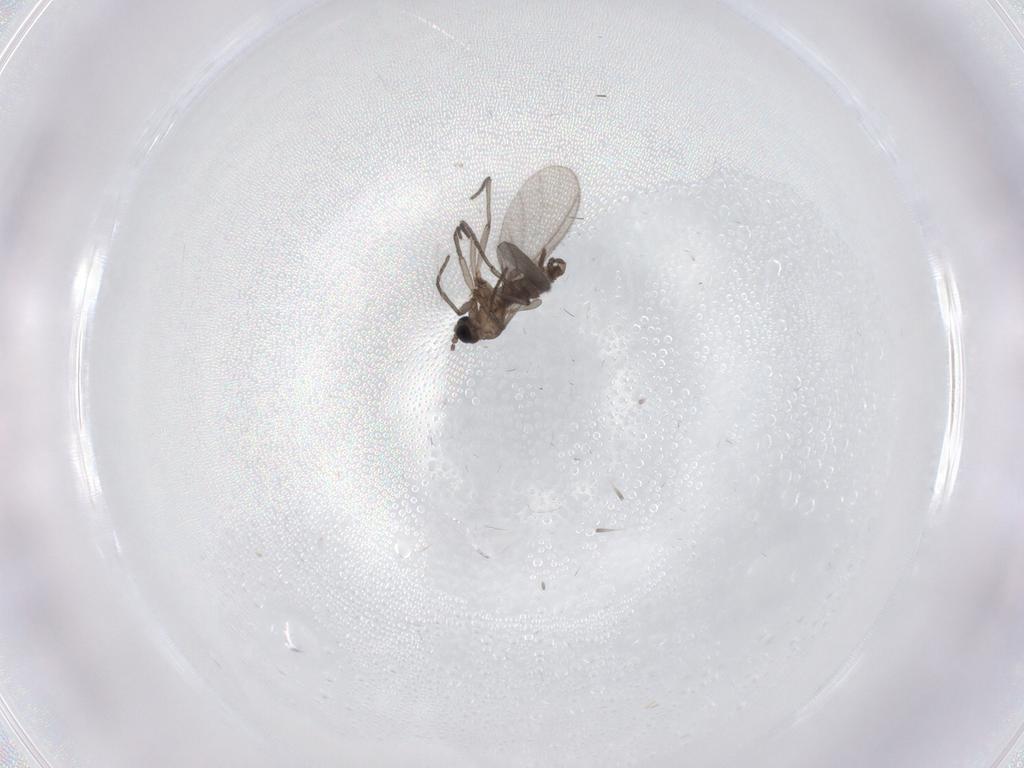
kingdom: Animalia
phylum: Arthropoda
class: Insecta
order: Diptera
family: Sciaridae
